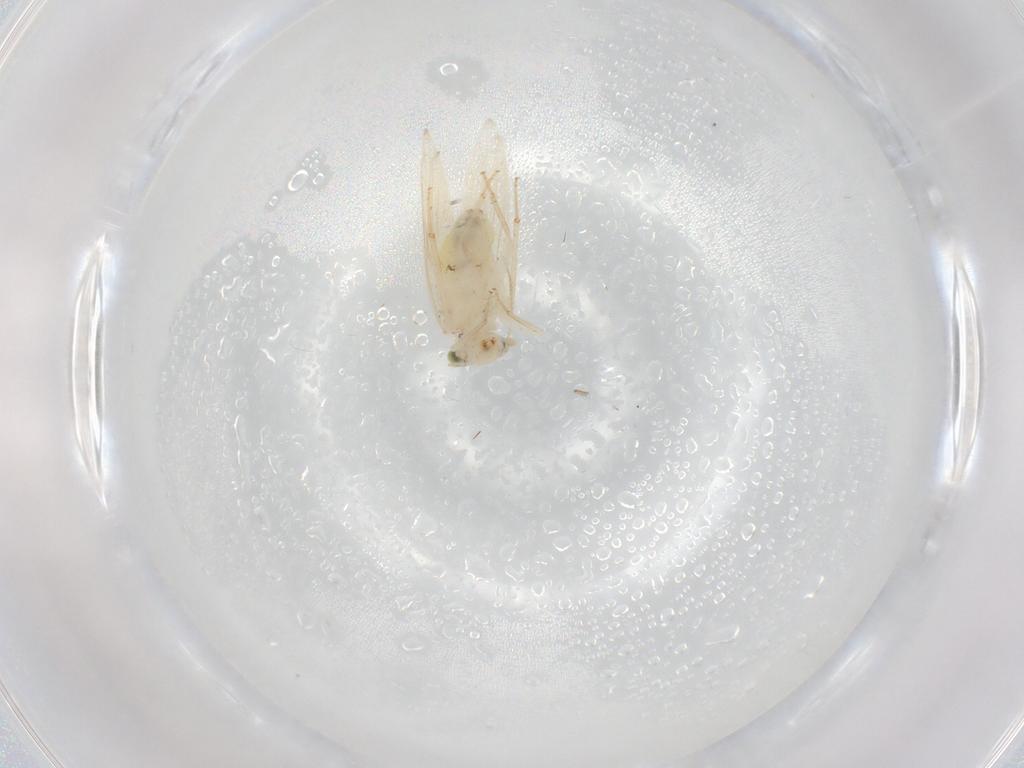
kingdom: Animalia
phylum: Arthropoda
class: Insecta
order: Psocodea
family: Lepidopsocidae
